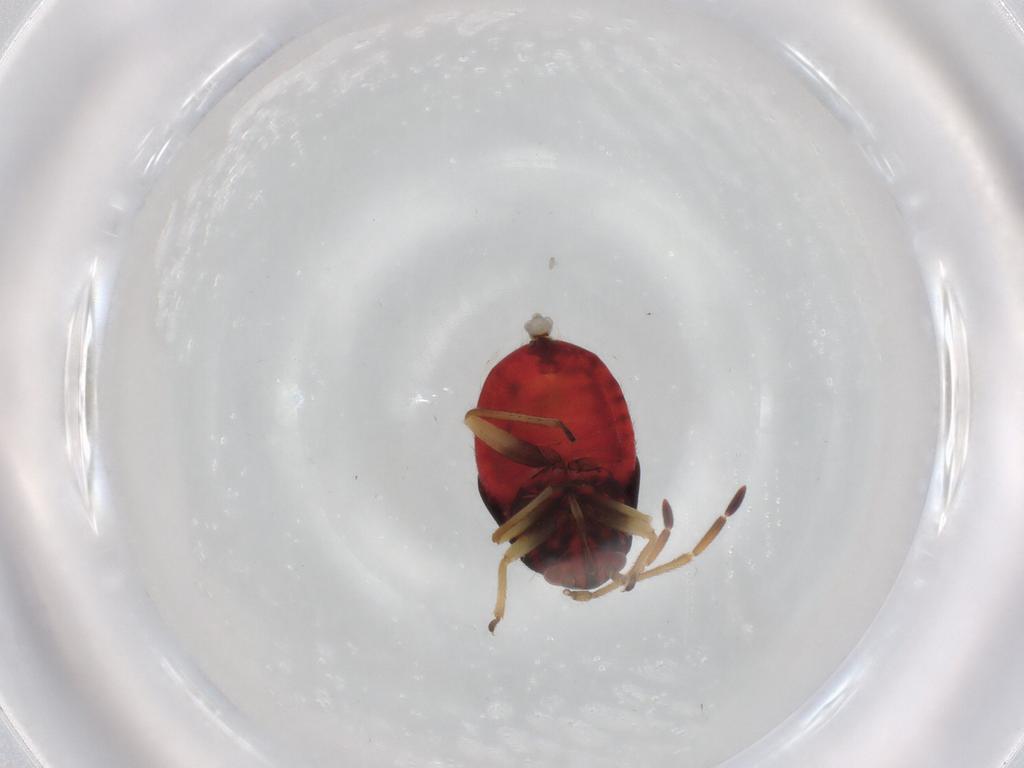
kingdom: Animalia
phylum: Arthropoda
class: Insecta
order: Hemiptera
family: Miridae
